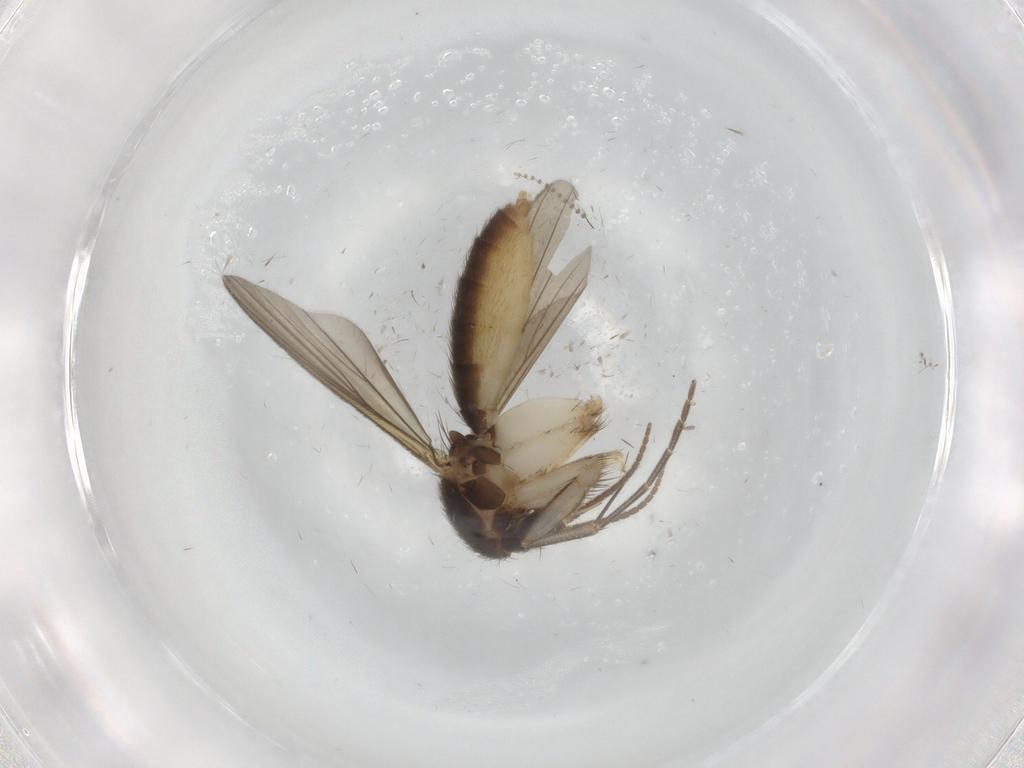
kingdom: Animalia
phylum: Arthropoda
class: Insecta
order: Diptera
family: Mycetophilidae
